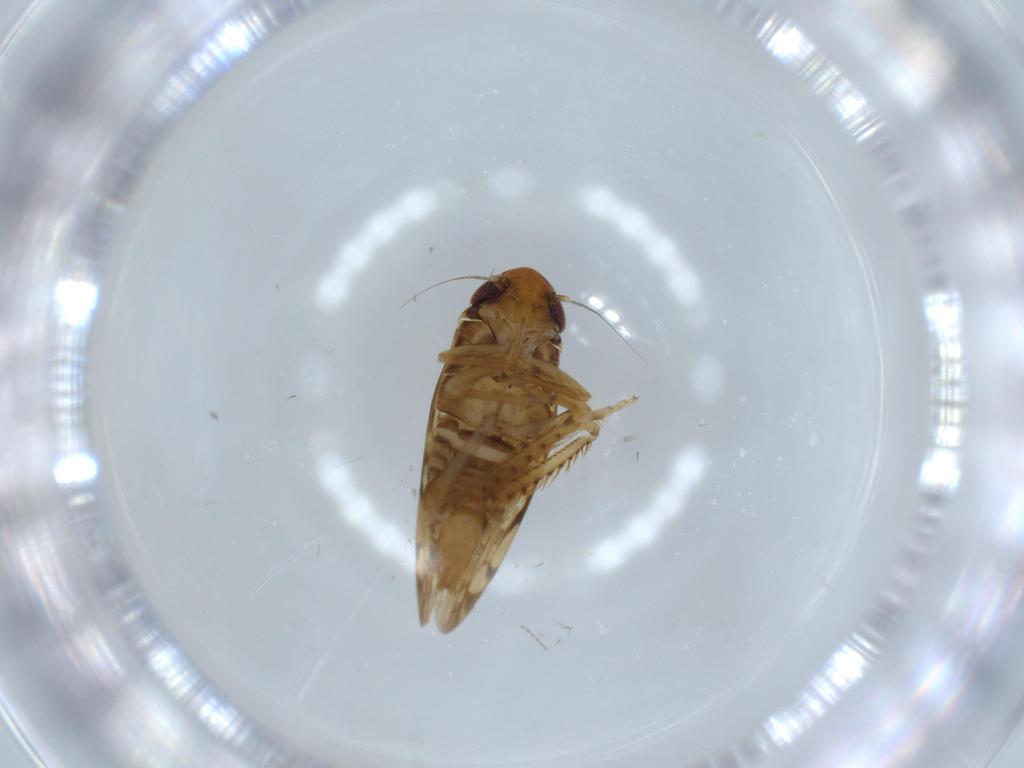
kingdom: Animalia
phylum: Arthropoda
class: Insecta
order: Hemiptera
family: Cicadellidae
